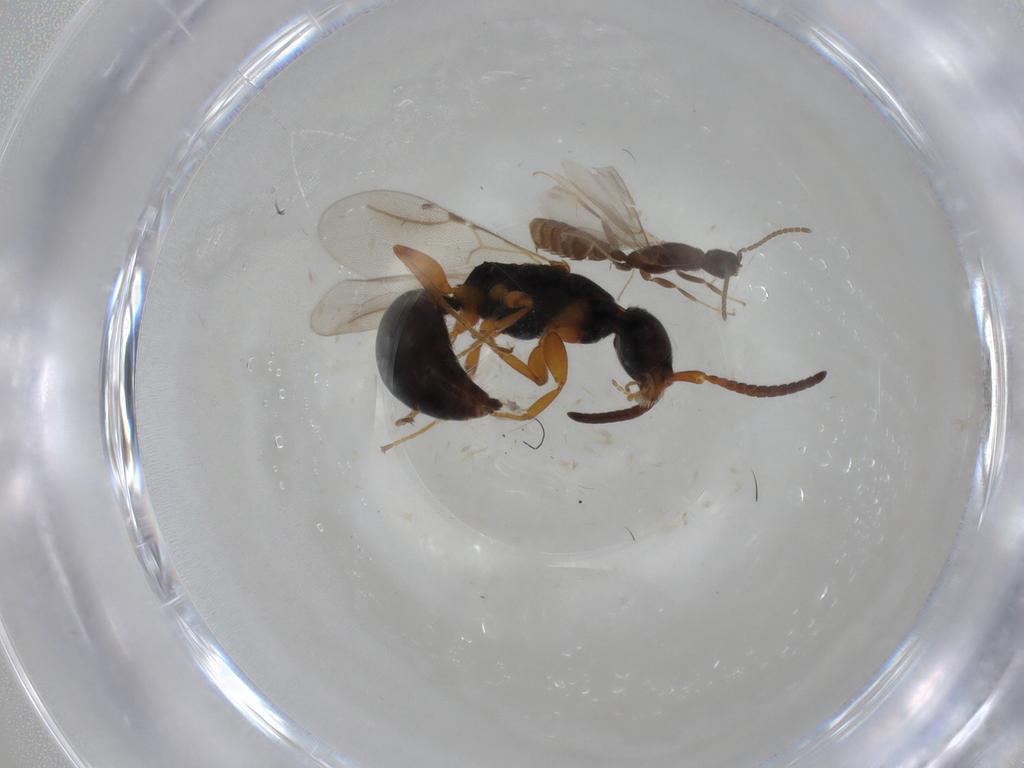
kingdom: Animalia
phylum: Arthropoda
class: Insecta
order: Hymenoptera
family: Bethylidae
